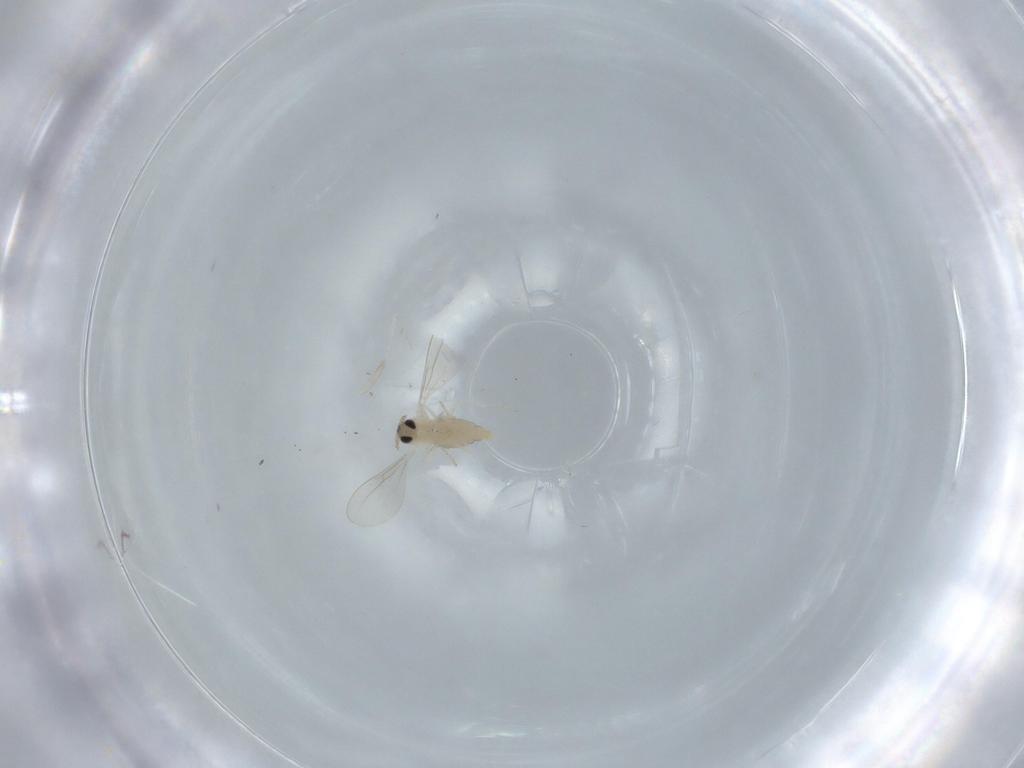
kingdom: Animalia
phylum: Arthropoda
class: Insecta
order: Diptera
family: Cecidomyiidae
